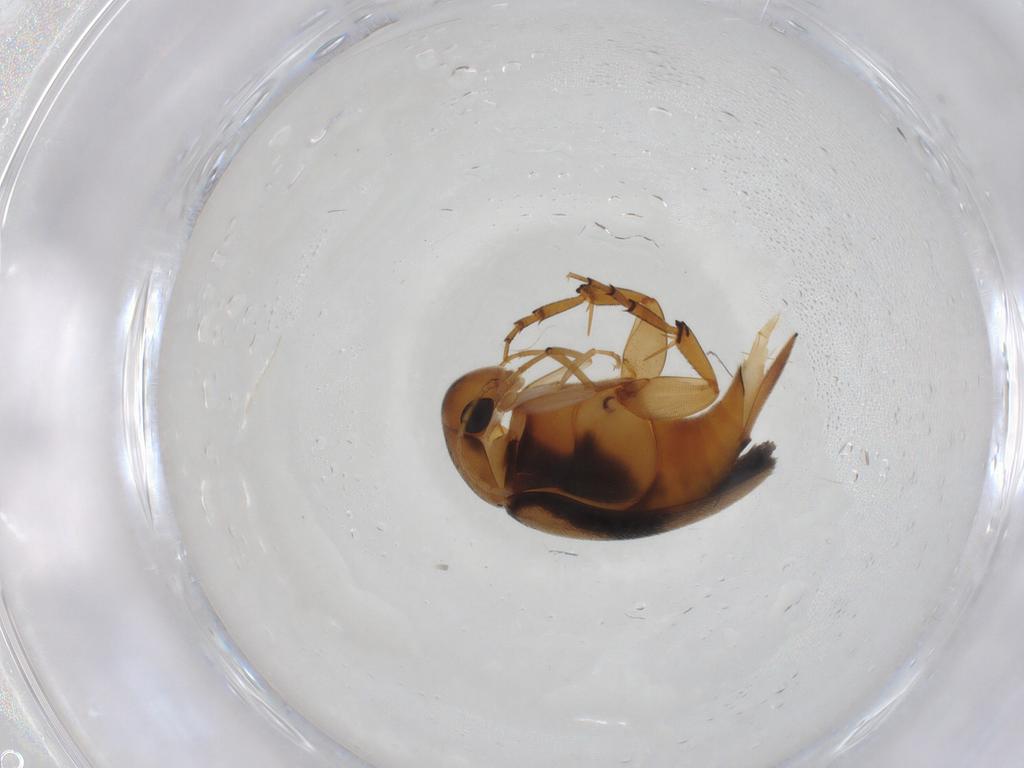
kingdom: Animalia
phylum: Arthropoda
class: Insecta
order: Coleoptera
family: Mordellidae
